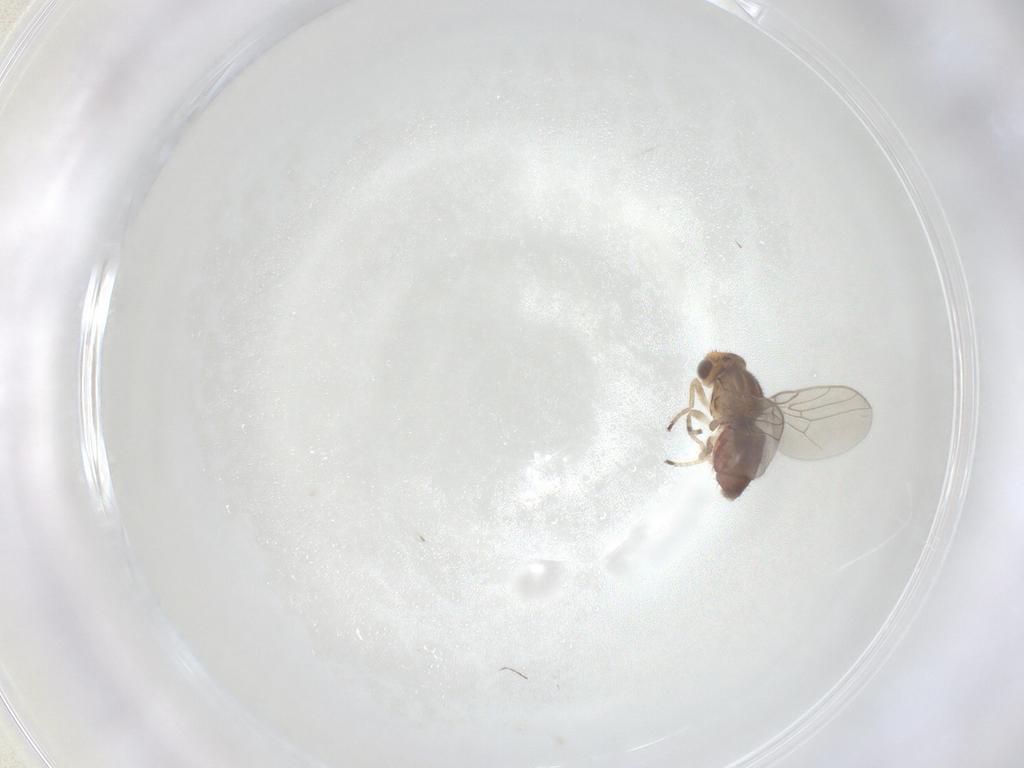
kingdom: Animalia
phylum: Arthropoda
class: Insecta
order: Diptera
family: Chloropidae
